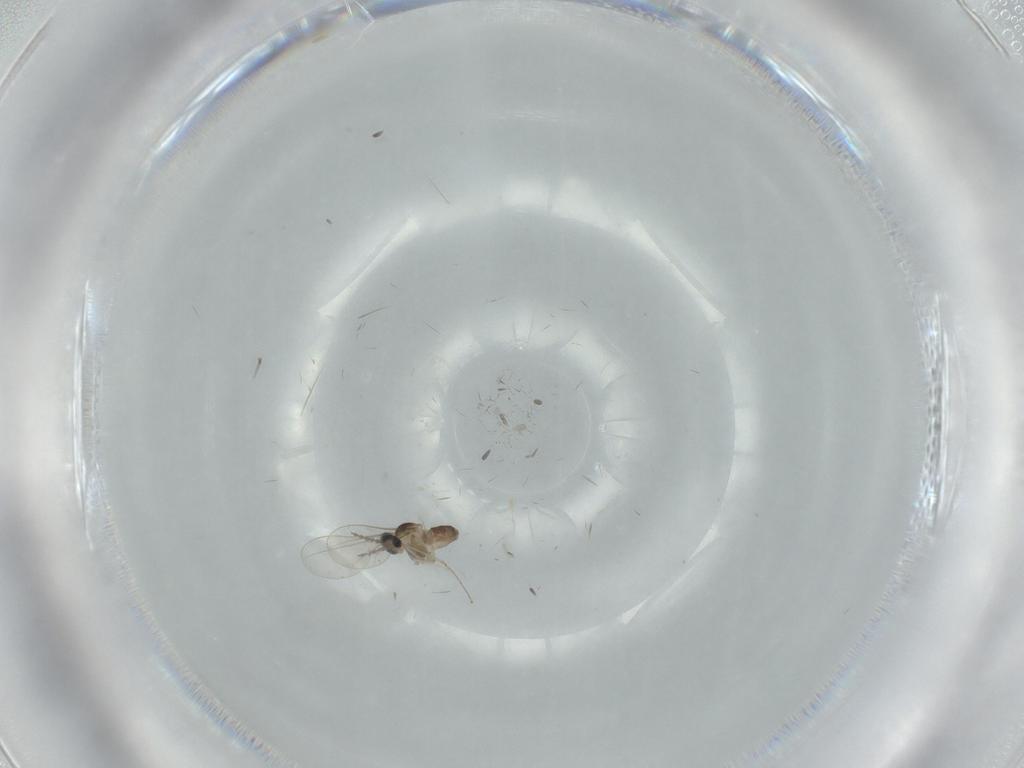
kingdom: Animalia
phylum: Arthropoda
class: Insecta
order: Diptera
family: Cecidomyiidae
